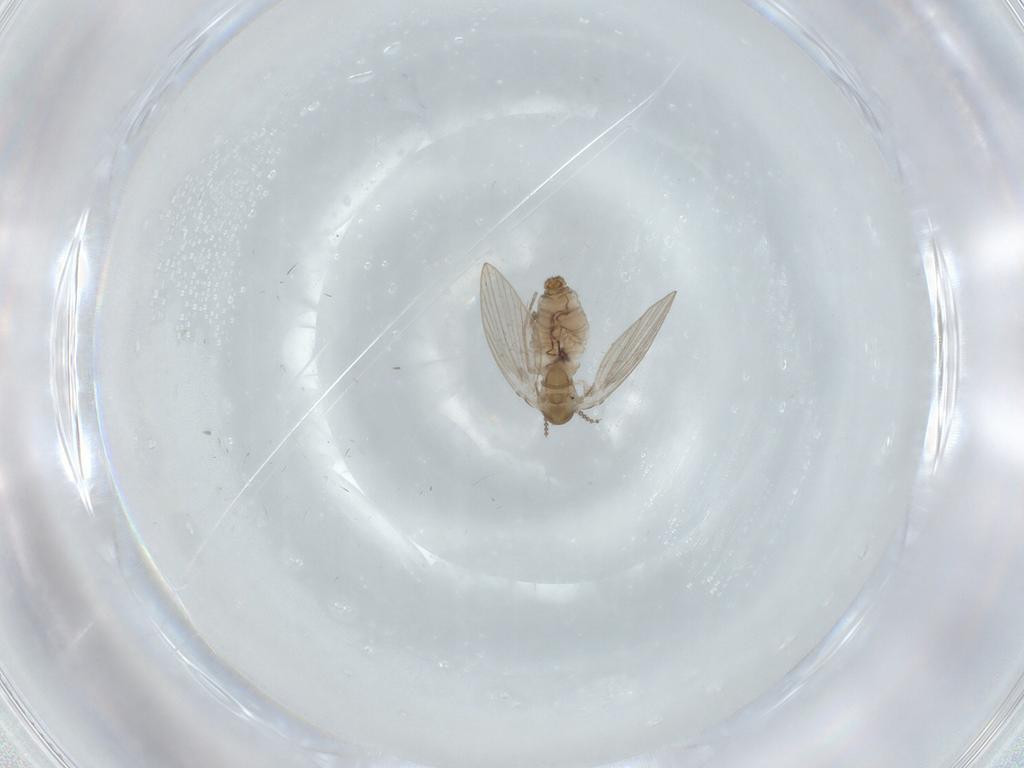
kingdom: Animalia
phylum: Arthropoda
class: Insecta
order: Diptera
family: Psychodidae
